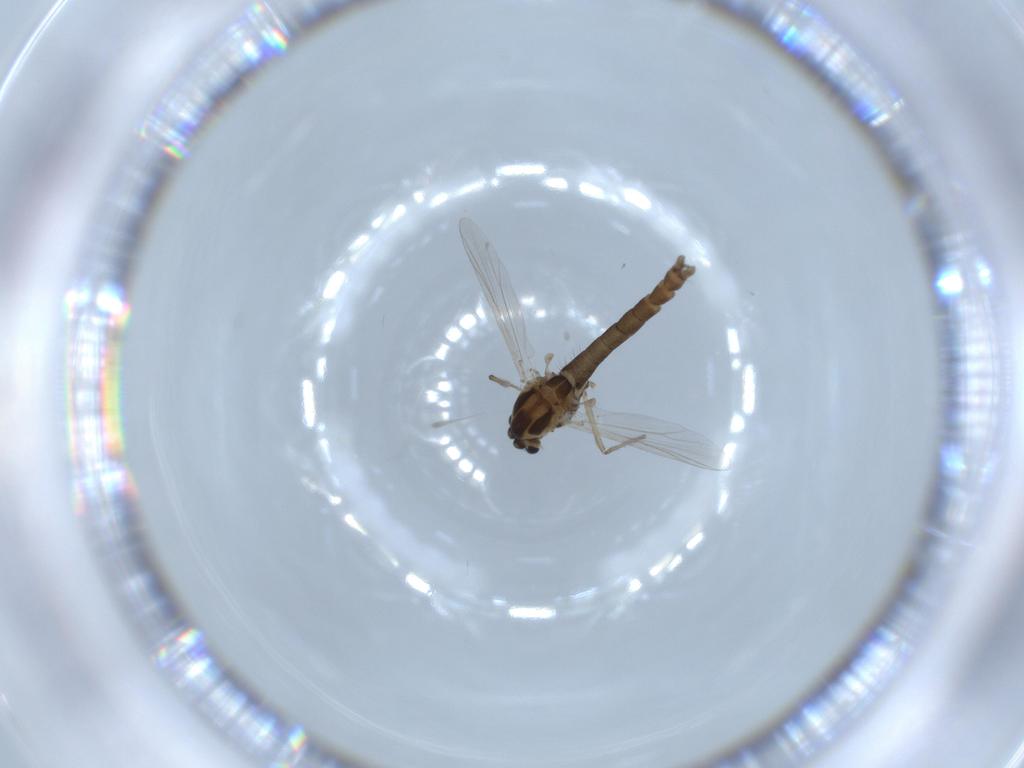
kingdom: Animalia
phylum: Arthropoda
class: Insecta
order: Diptera
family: Chironomidae
